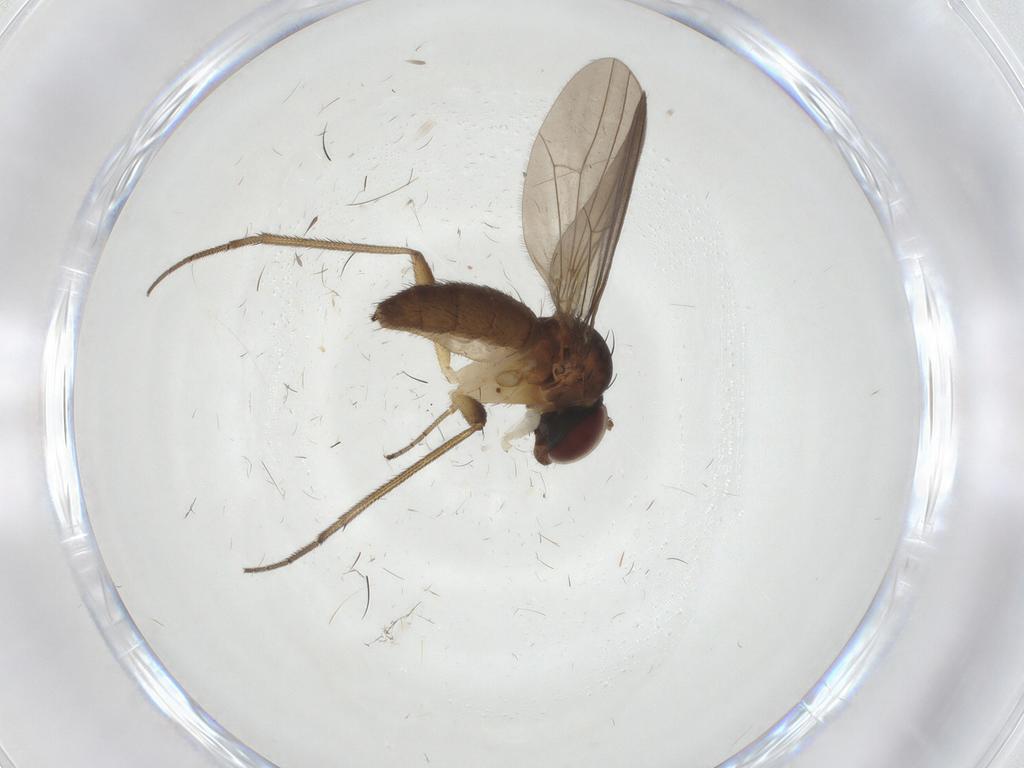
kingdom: Animalia
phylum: Arthropoda
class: Insecta
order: Diptera
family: Dolichopodidae
